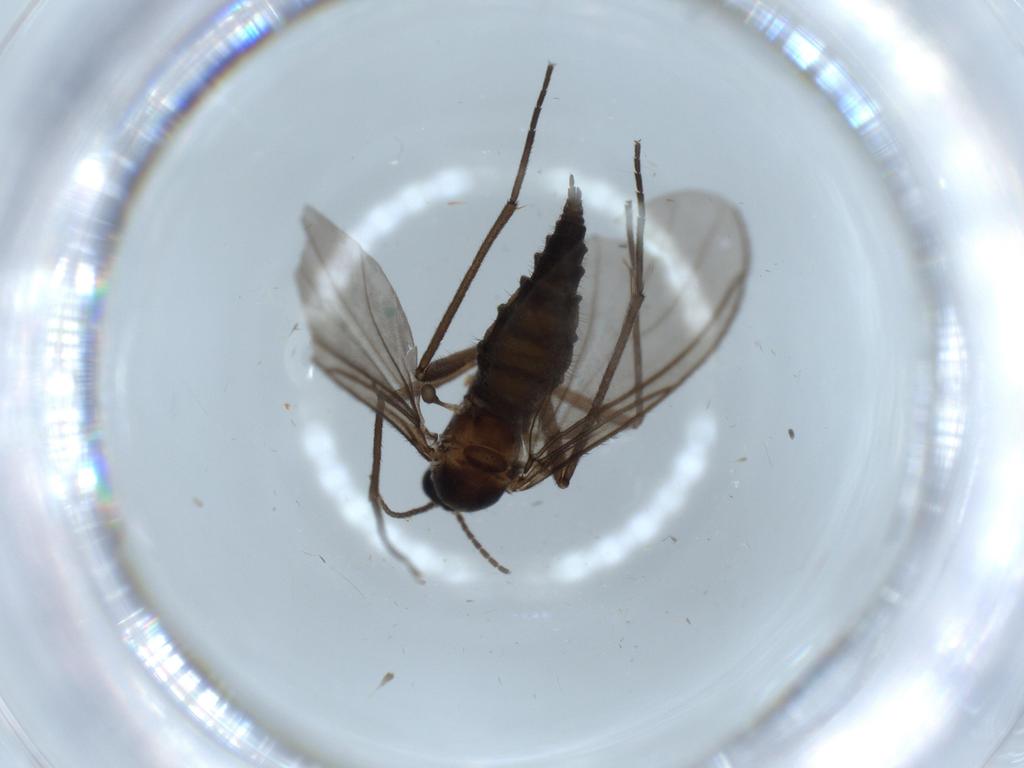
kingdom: Animalia
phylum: Arthropoda
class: Insecta
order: Diptera
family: Sciaridae
